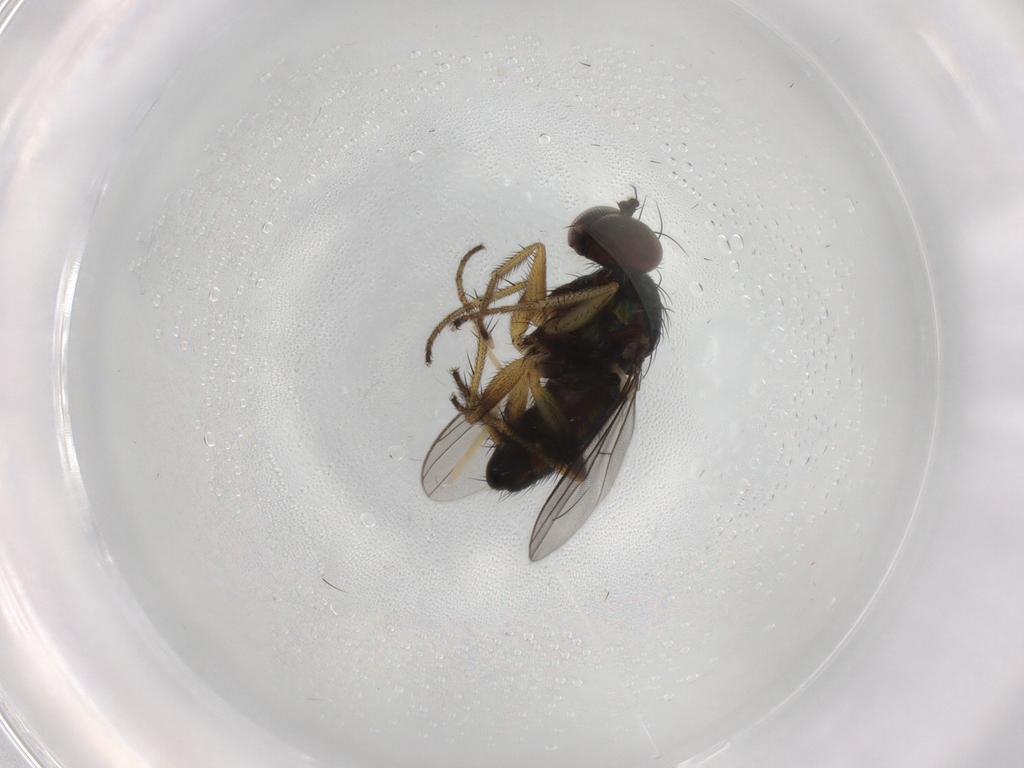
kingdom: Animalia
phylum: Arthropoda
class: Insecta
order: Diptera
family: Dolichopodidae
